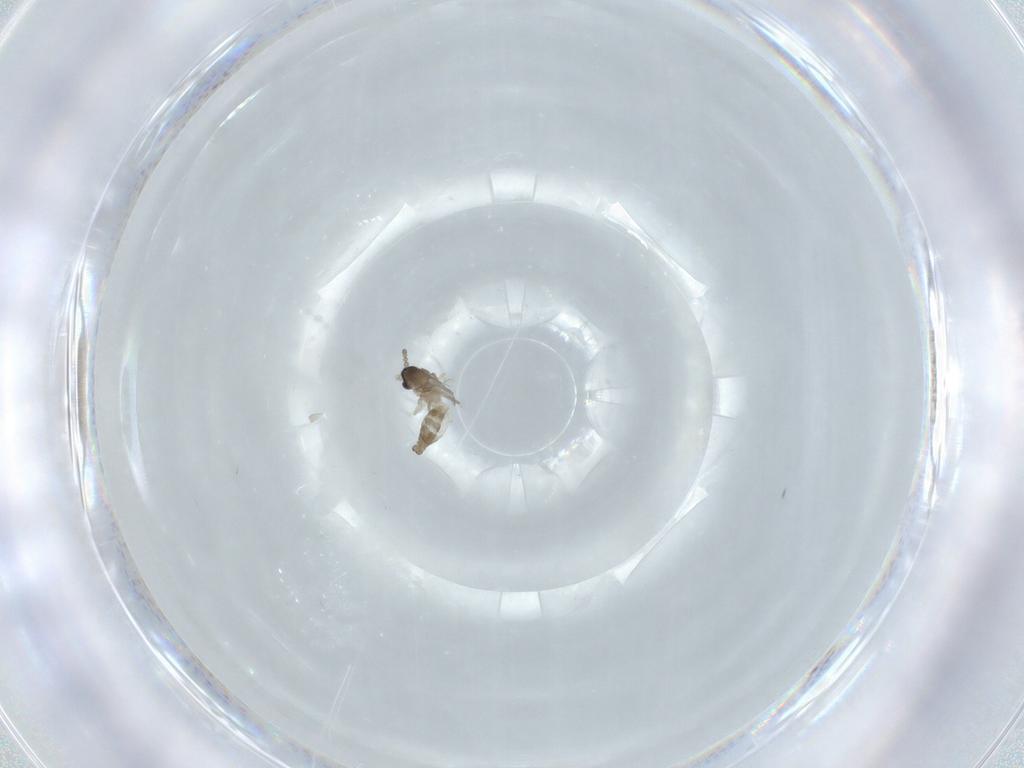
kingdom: Animalia
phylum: Arthropoda
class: Insecta
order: Diptera
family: Cecidomyiidae
